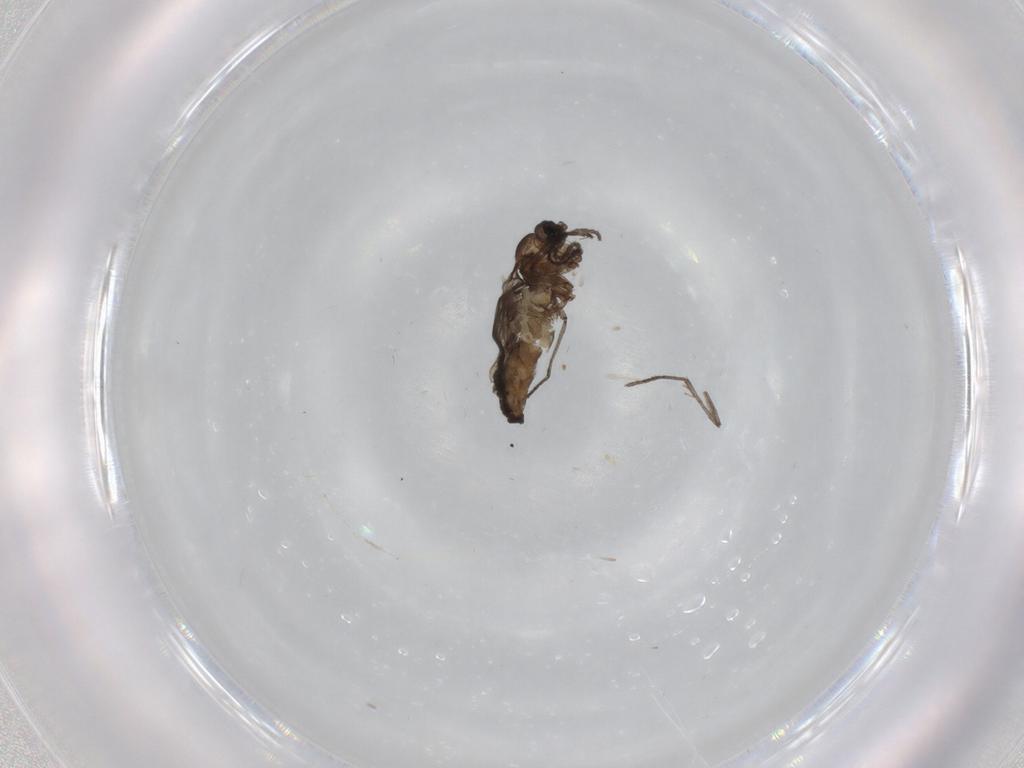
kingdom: Animalia
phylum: Arthropoda
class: Insecta
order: Diptera
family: Sciaridae
